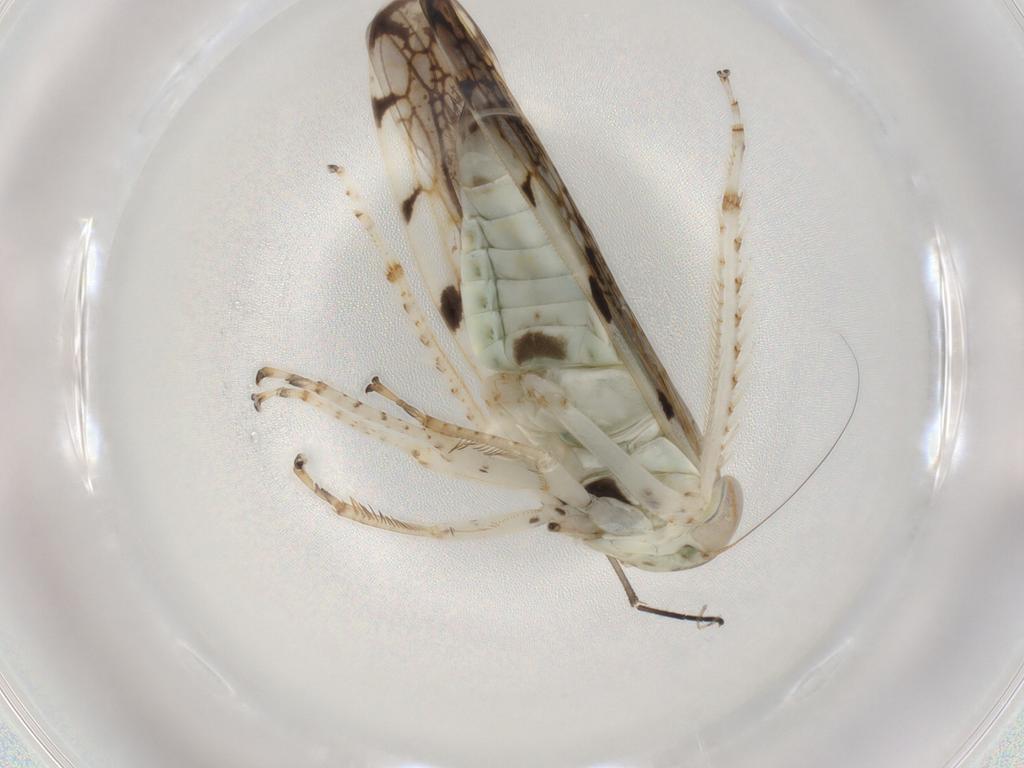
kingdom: Animalia
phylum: Arthropoda
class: Insecta
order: Hemiptera
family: Cicadellidae
